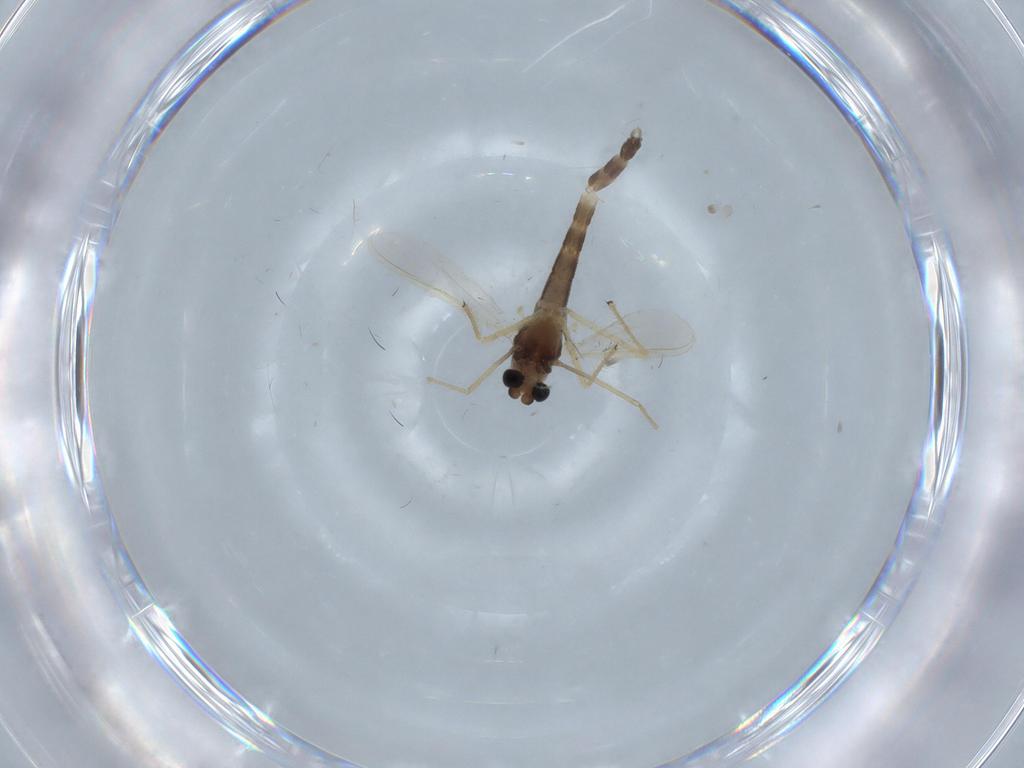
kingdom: Animalia
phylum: Arthropoda
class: Insecta
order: Diptera
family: Chironomidae
